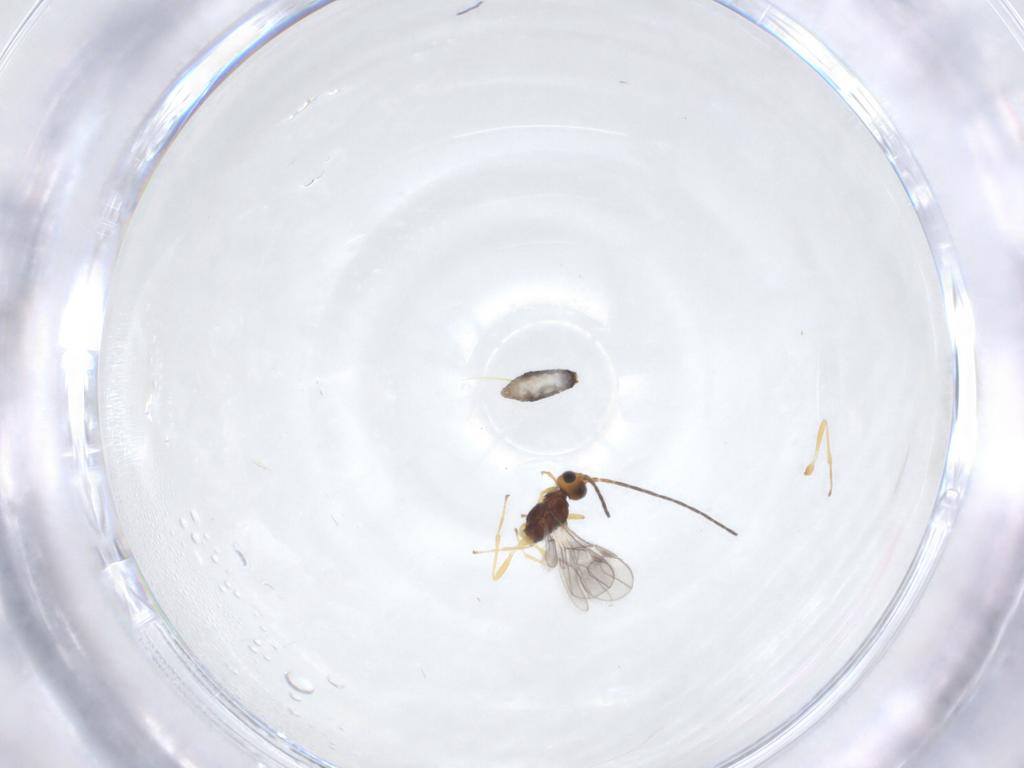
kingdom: Animalia
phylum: Arthropoda
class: Insecta
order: Hymenoptera
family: Braconidae
